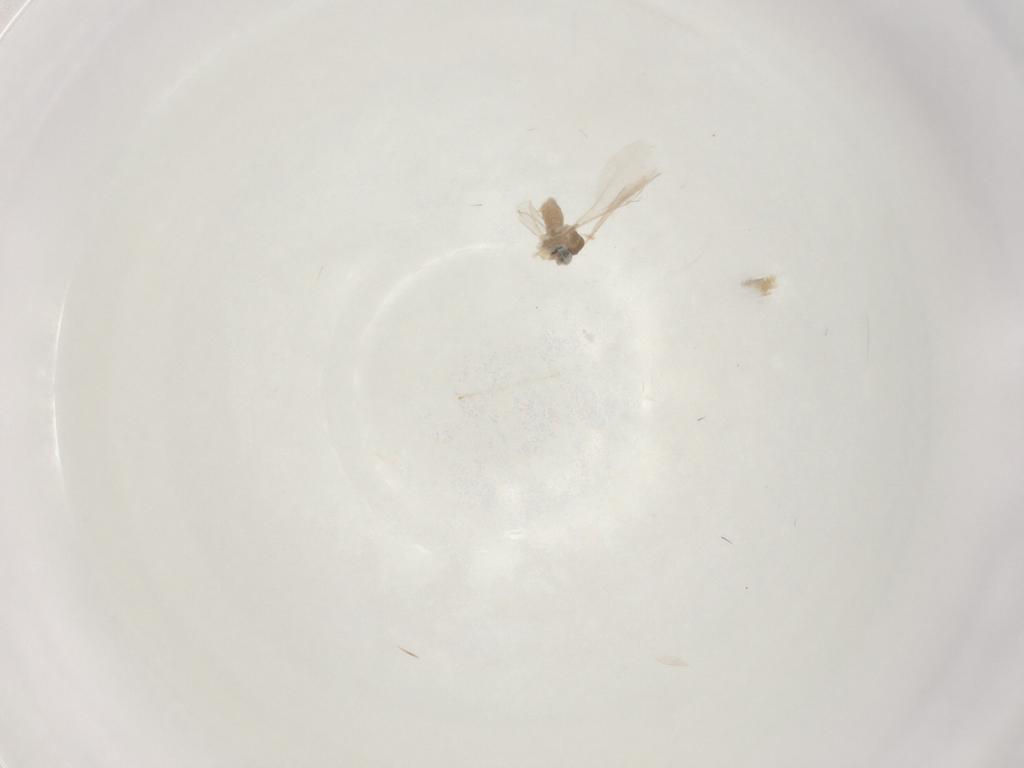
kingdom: Animalia
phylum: Arthropoda
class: Insecta
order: Diptera
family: Cecidomyiidae
